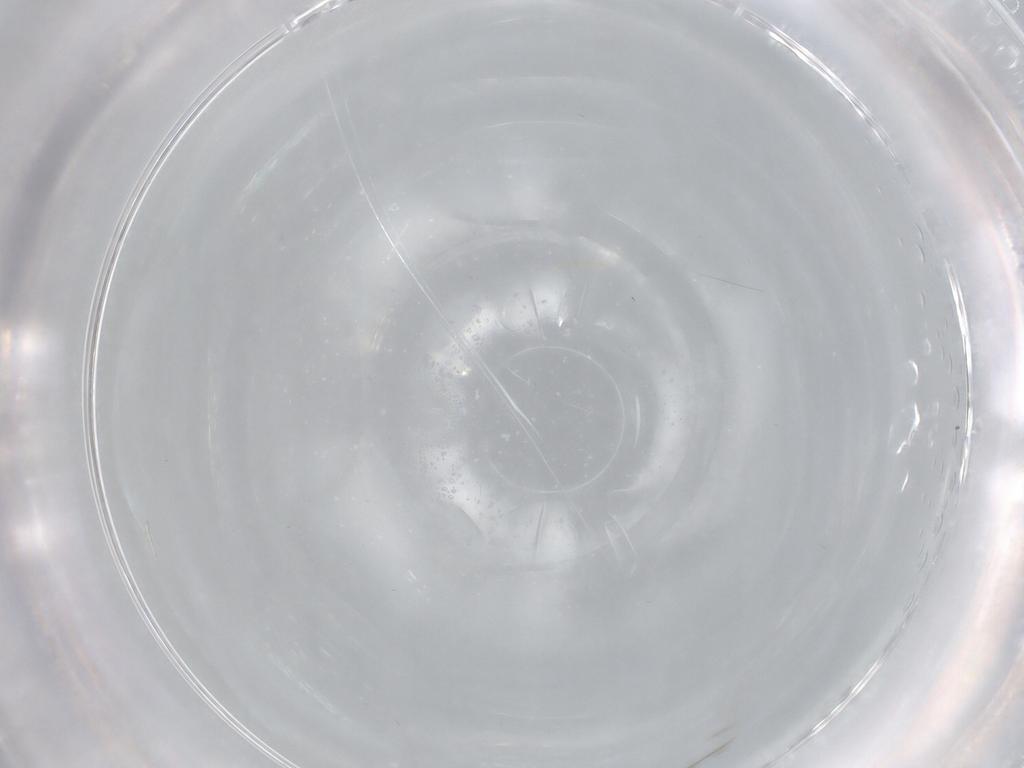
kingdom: Animalia
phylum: Arthropoda
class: Insecta
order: Diptera
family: Cecidomyiidae
